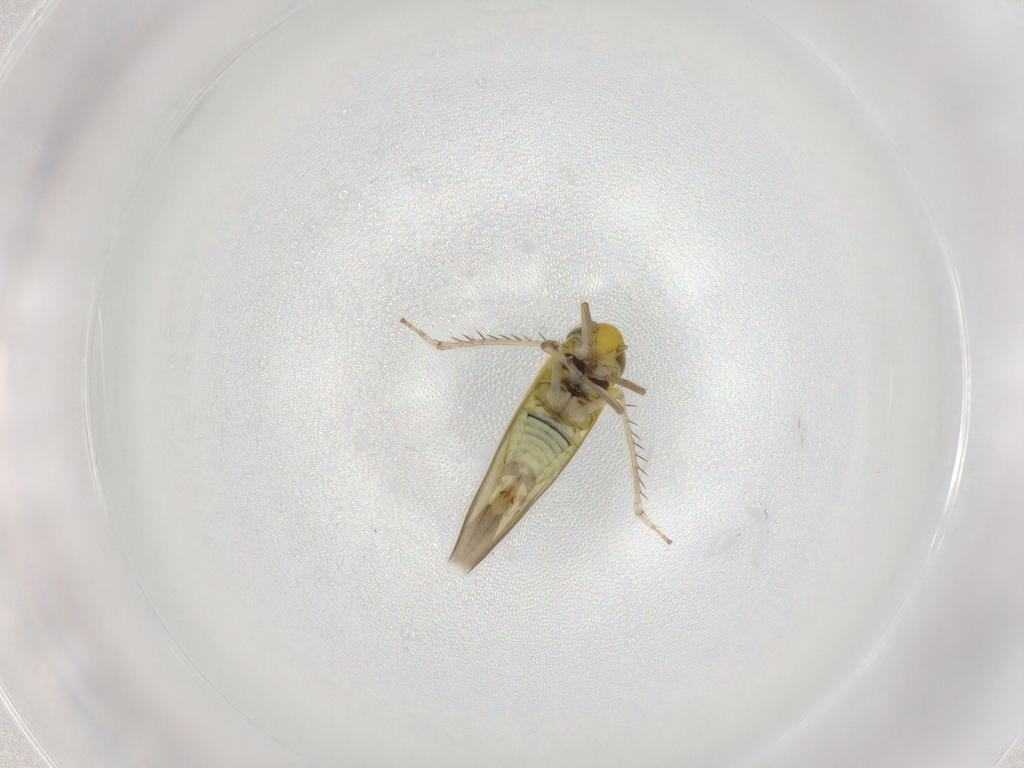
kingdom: Animalia
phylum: Arthropoda
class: Insecta
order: Hemiptera
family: Cicadellidae
